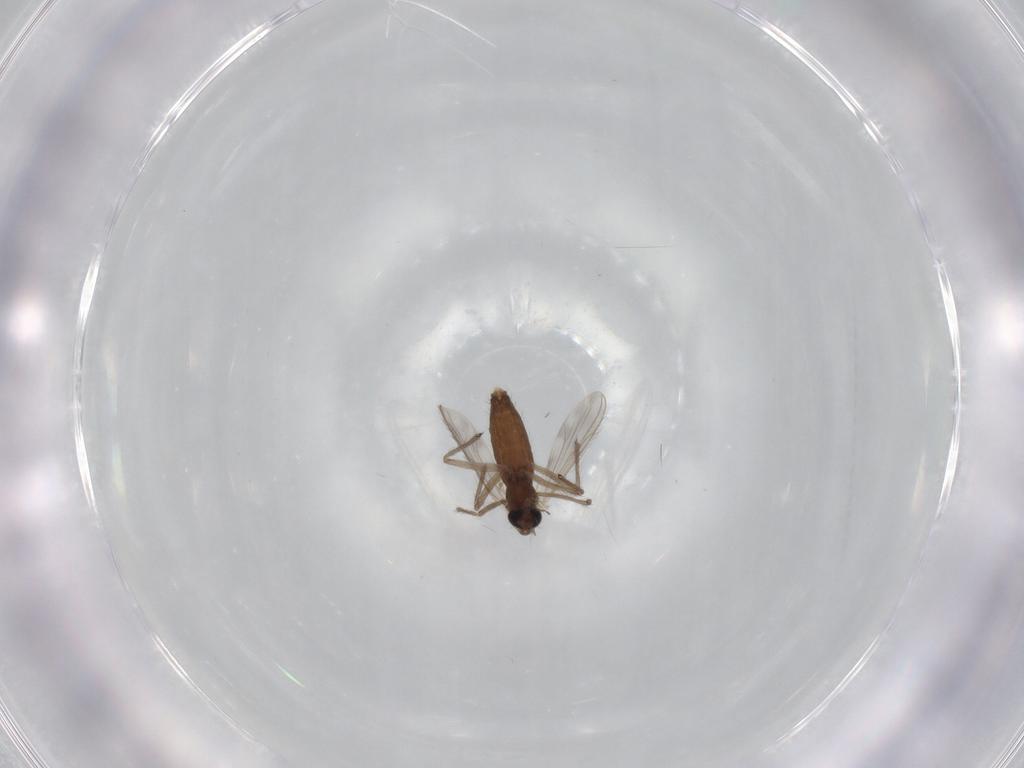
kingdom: Animalia
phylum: Arthropoda
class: Insecta
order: Diptera
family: Chironomidae
